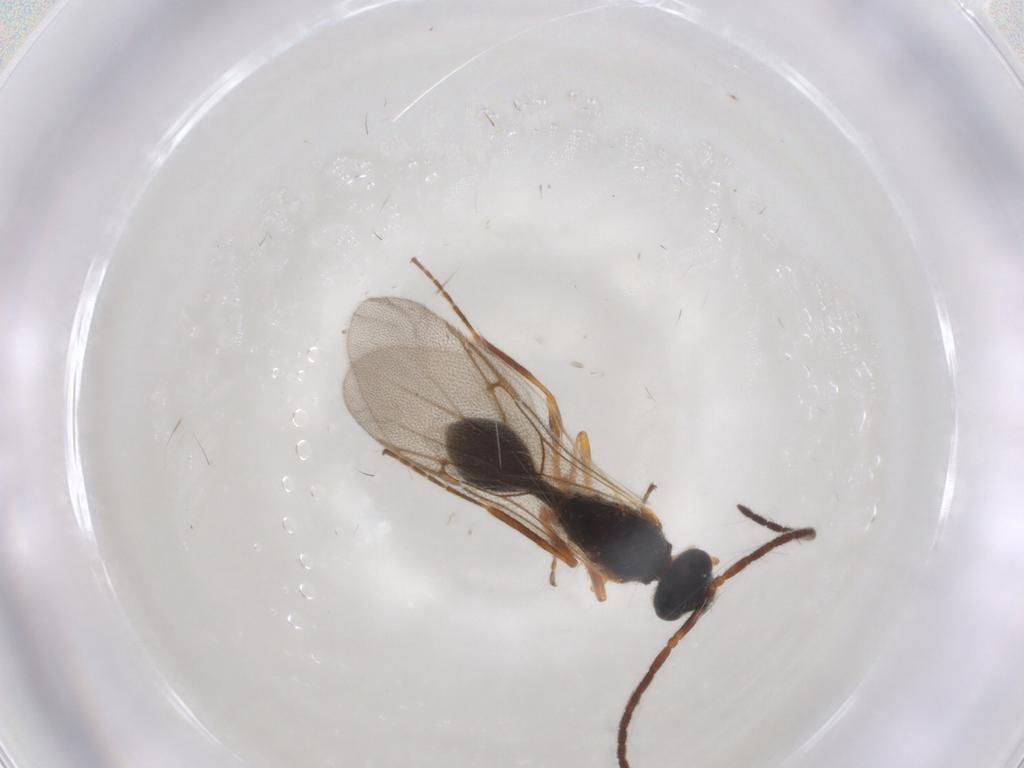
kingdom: Animalia
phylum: Arthropoda
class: Insecta
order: Hymenoptera
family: Diapriidae
